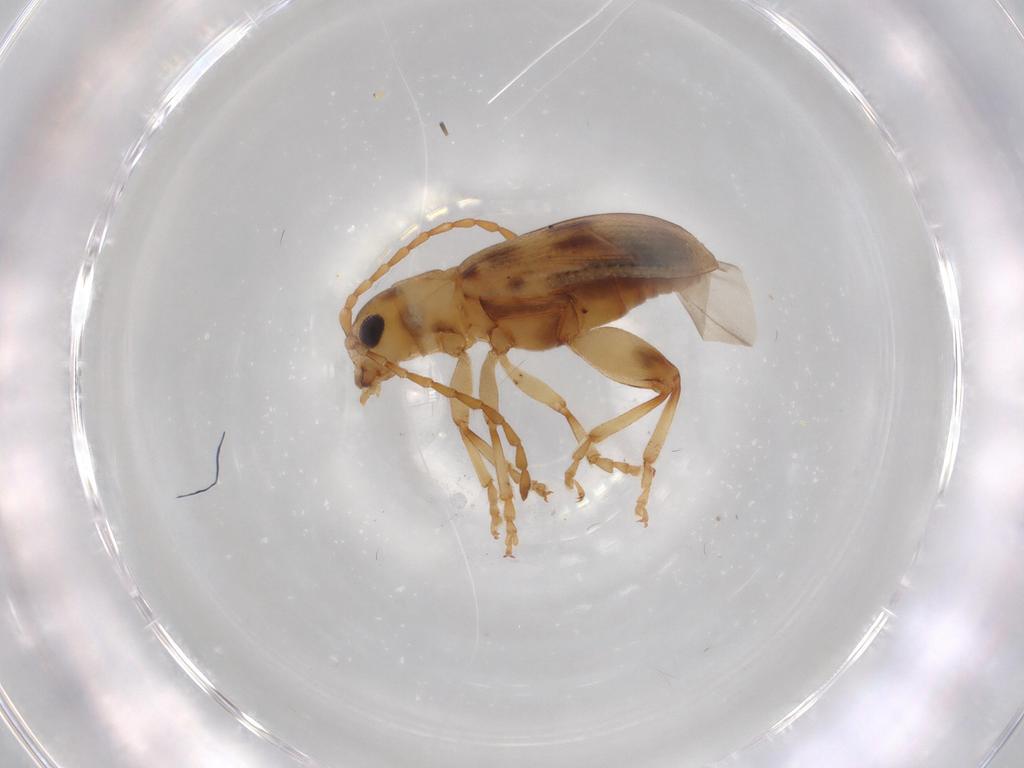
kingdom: Animalia
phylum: Arthropoda
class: Insecta
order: Coleoptera
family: Chrysomelidae
